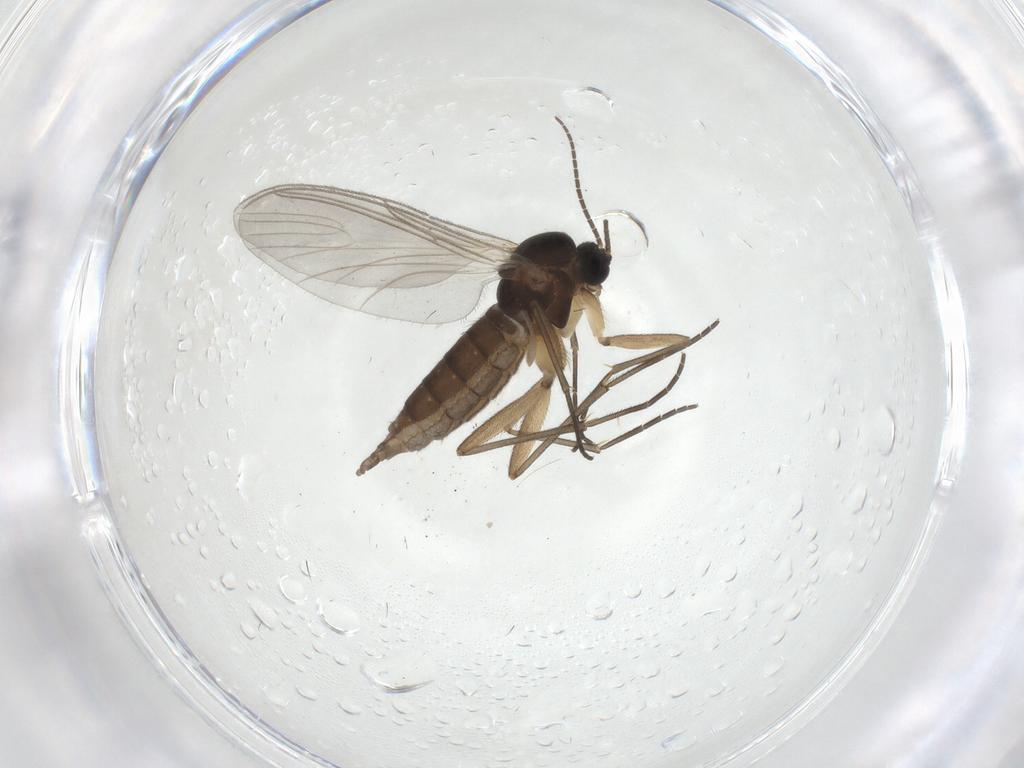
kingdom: Animalia
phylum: Arthropoda
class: Insecta
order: Diptera
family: Sciaridae
